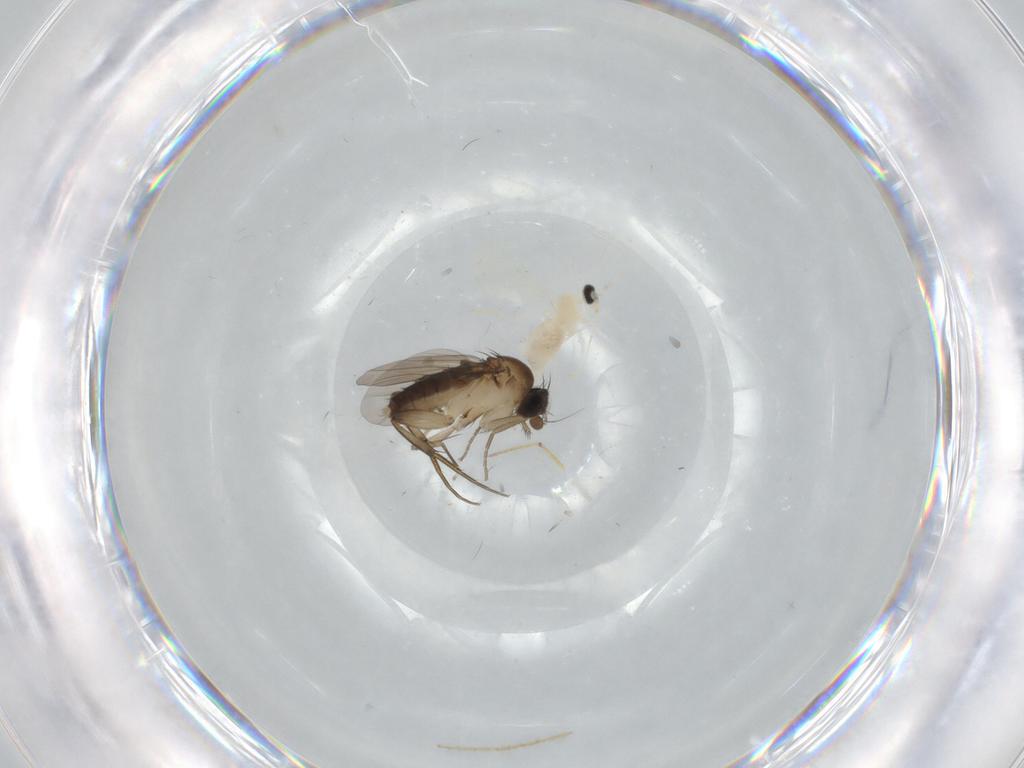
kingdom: Animalia
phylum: Arthropoda
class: Insecta
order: Diptera
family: Cecidomyiidae
